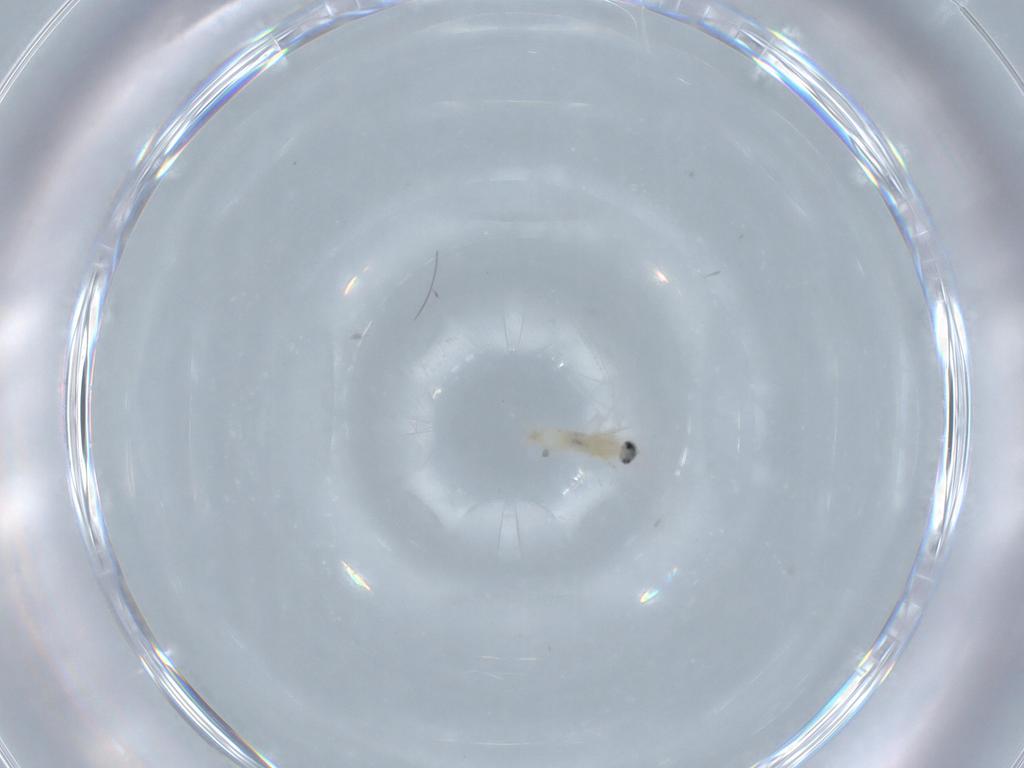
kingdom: Animalia
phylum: Arthropoda
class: Insecta
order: Diptera
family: Cecidomyiidae
